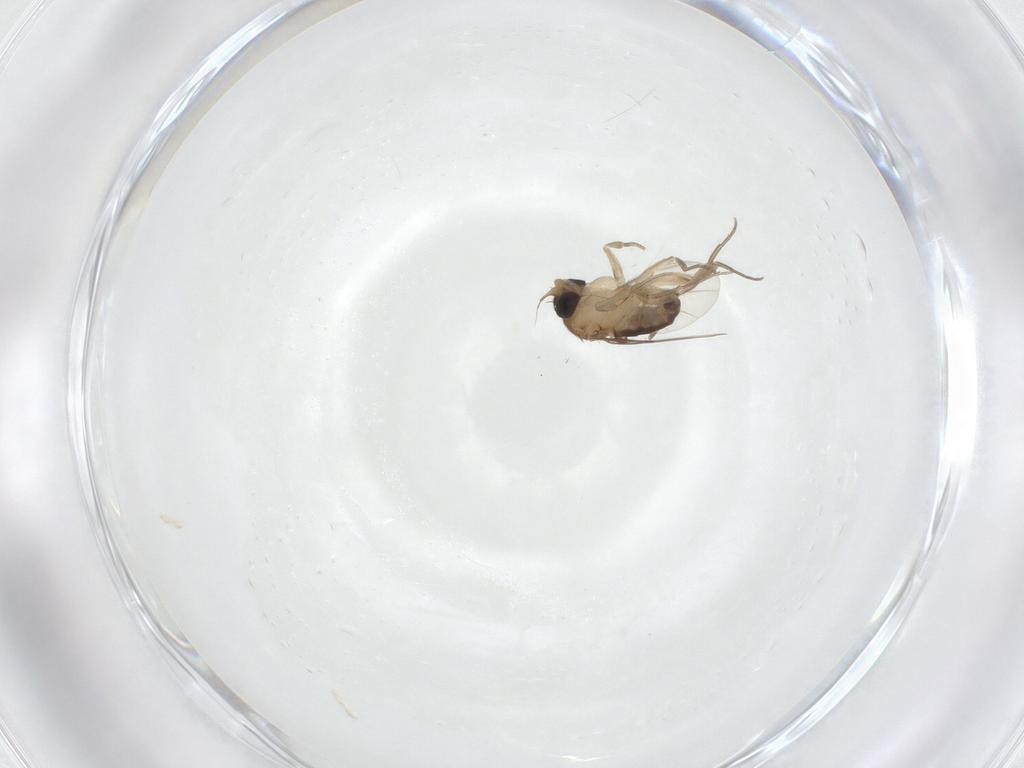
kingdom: Animalia
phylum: Arthropoda
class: Insecta
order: Diptera
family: Phoridae
